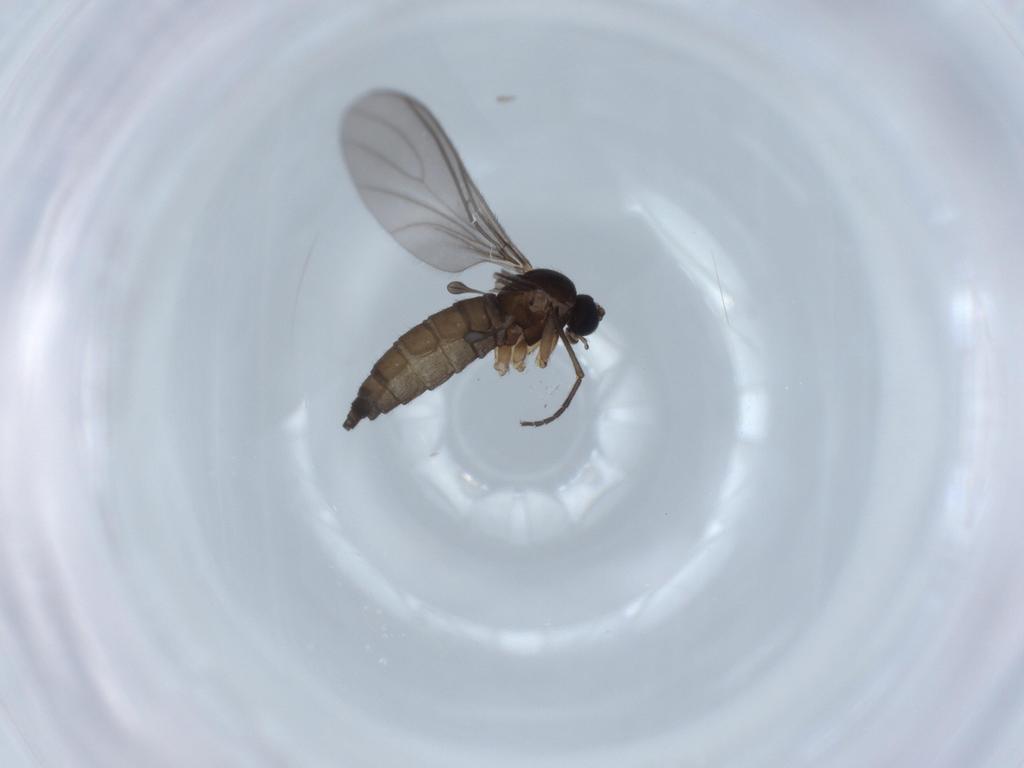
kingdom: Animalia
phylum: Arthropoda
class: Insecta
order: Diptera
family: Sciaridae
